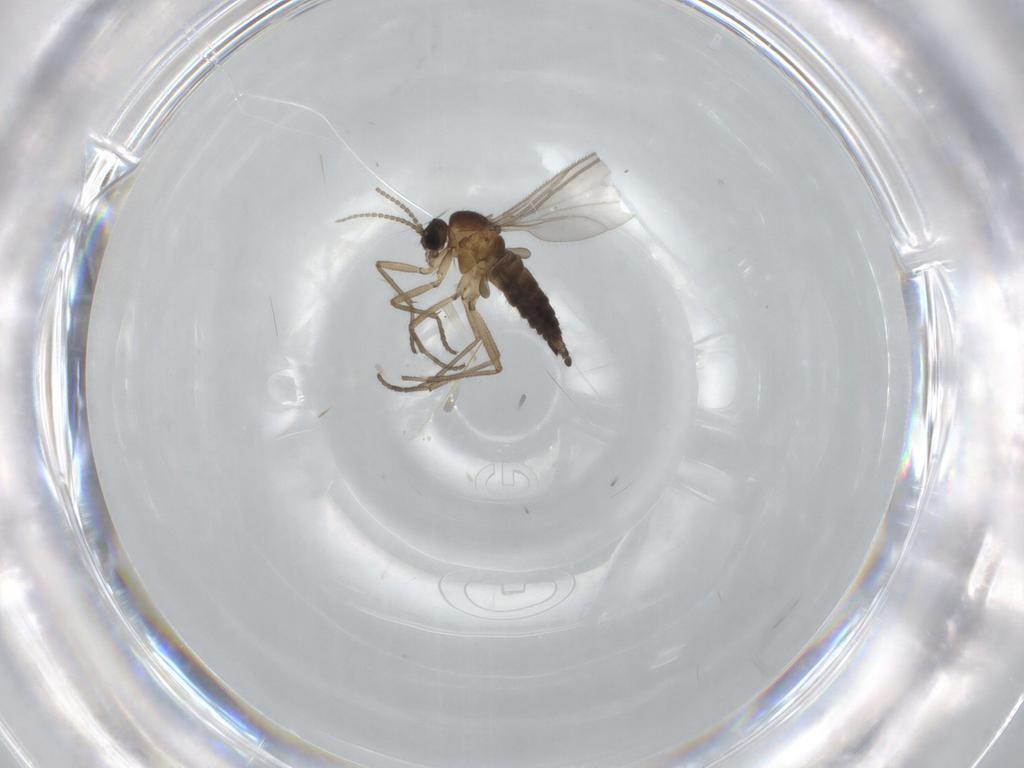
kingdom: Animalia
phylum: Arthropoda
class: Insecta
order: Diptera
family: Sciaridae
